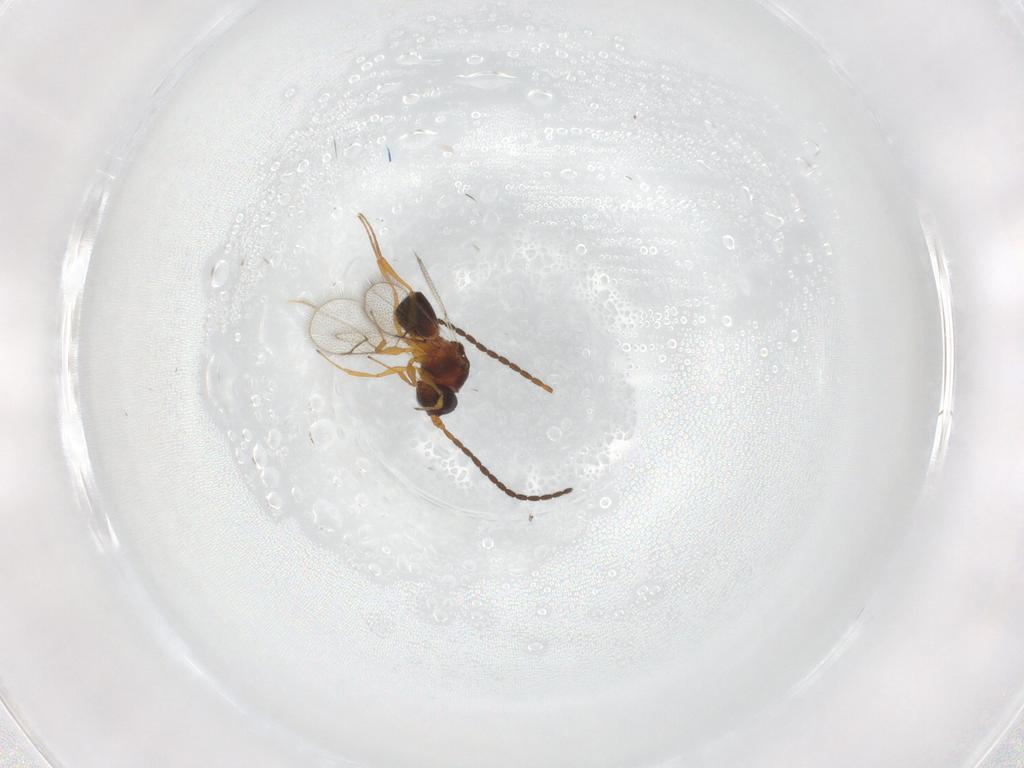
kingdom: Animalia
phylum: Arthropoda
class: Insecta
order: Hymenoptera
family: Figitidae
